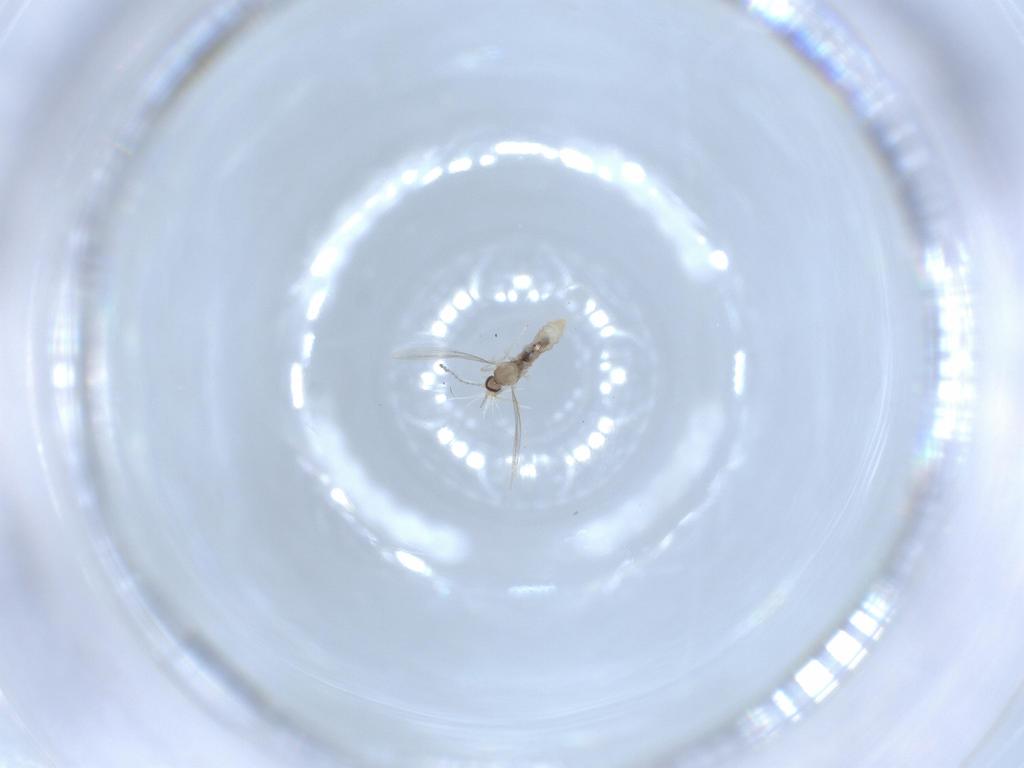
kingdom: Animalia
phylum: Arthropoda
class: Insecta
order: Diptera
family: Cecidomyiidae
